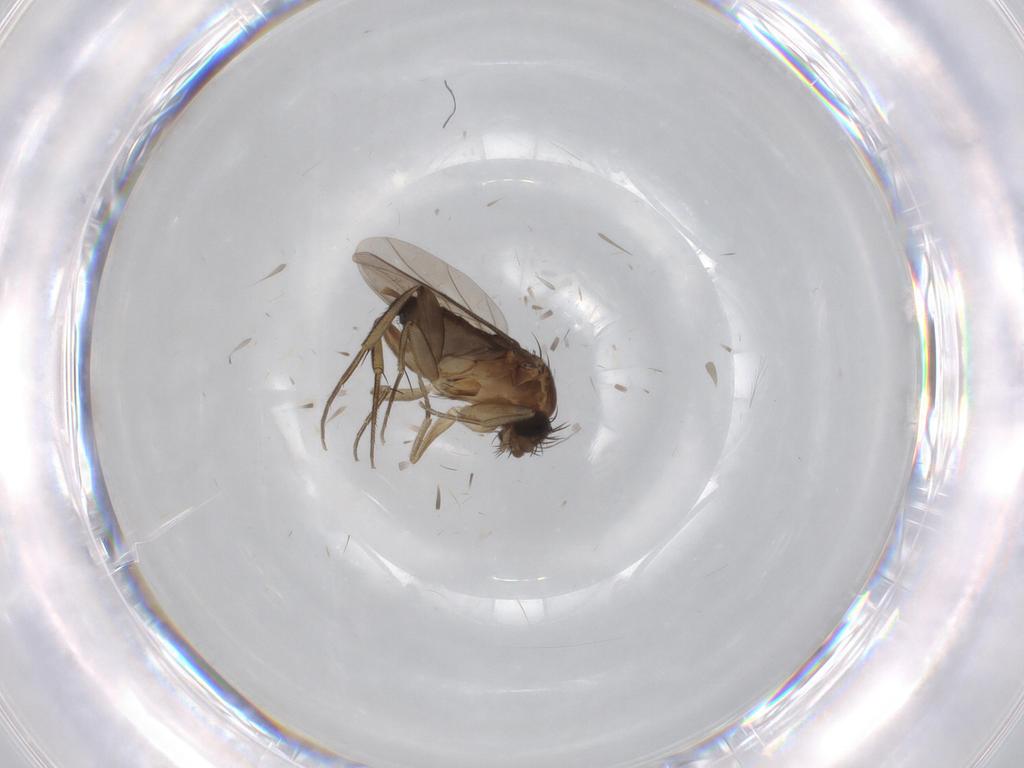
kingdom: Animalia
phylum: Arthropoda
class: Insecta
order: Diptera
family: Phoridae
